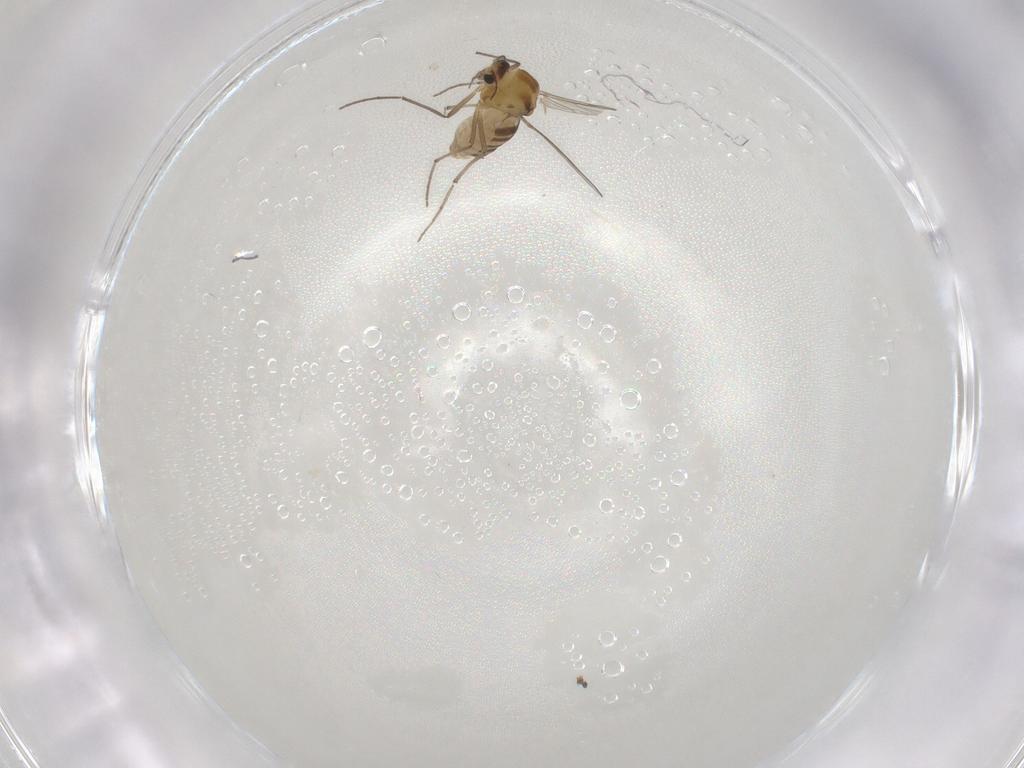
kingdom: Animalia
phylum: Arthropoda
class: Insecta
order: Diptera
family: Chironomidae
